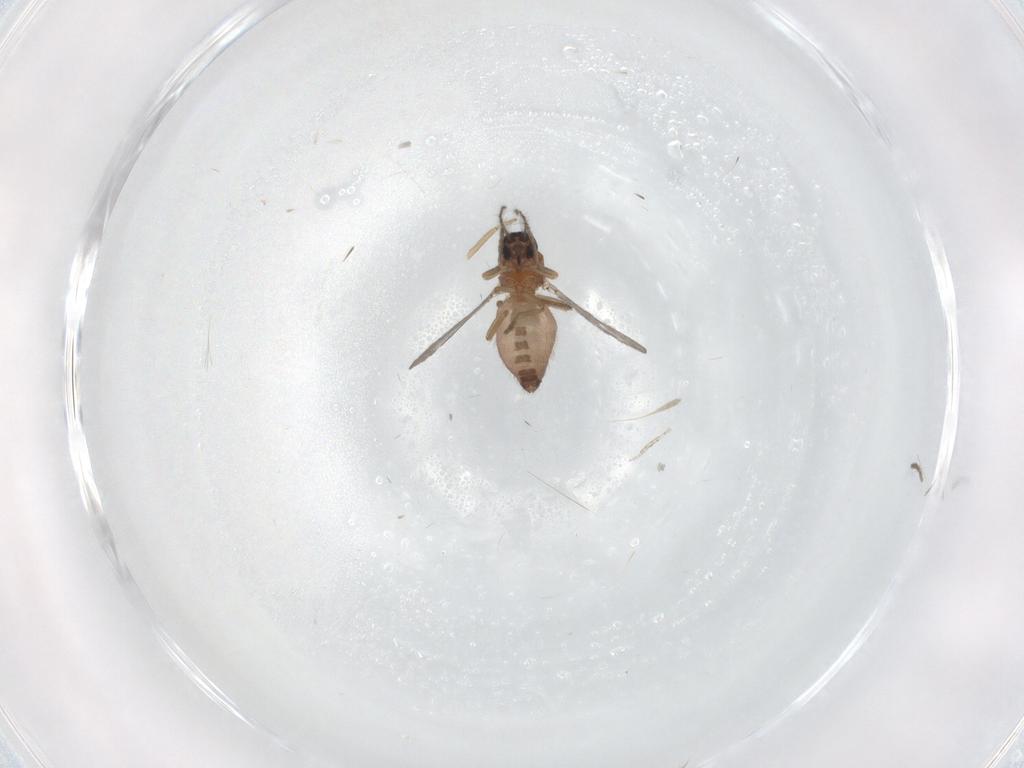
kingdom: Animalia
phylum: Arthropoda
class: Insecta
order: Diptera
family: Ceratopogonidae
